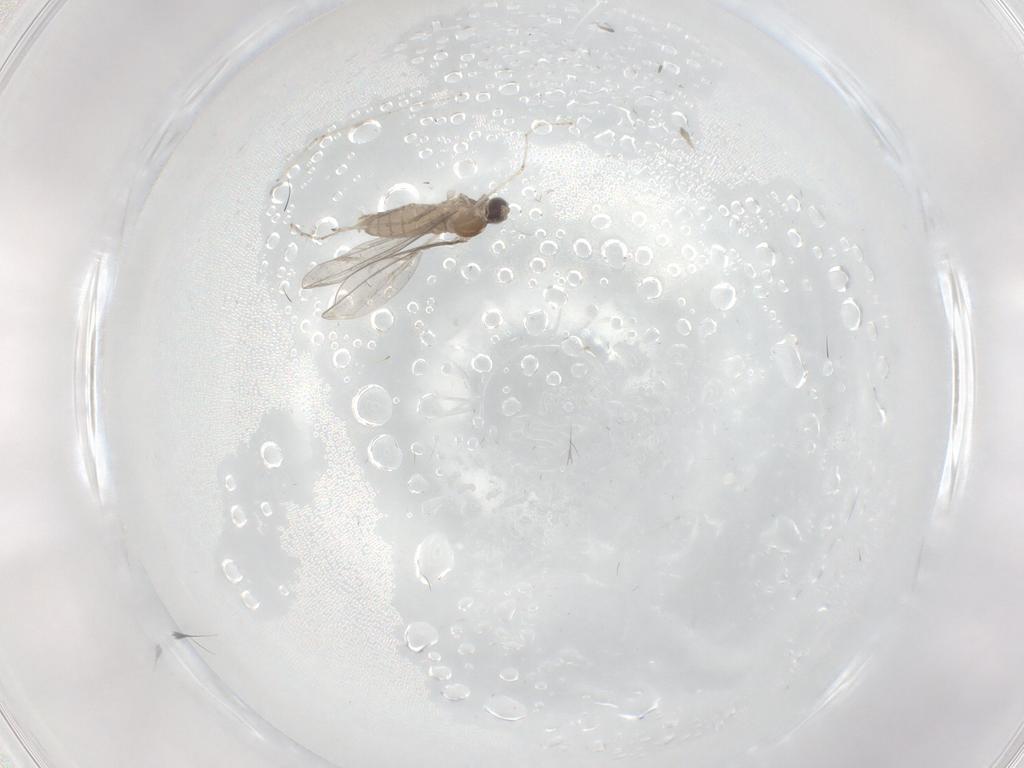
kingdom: Animalia
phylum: Arthropoda
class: Insecta
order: Diptera
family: Cecidomyiidae
